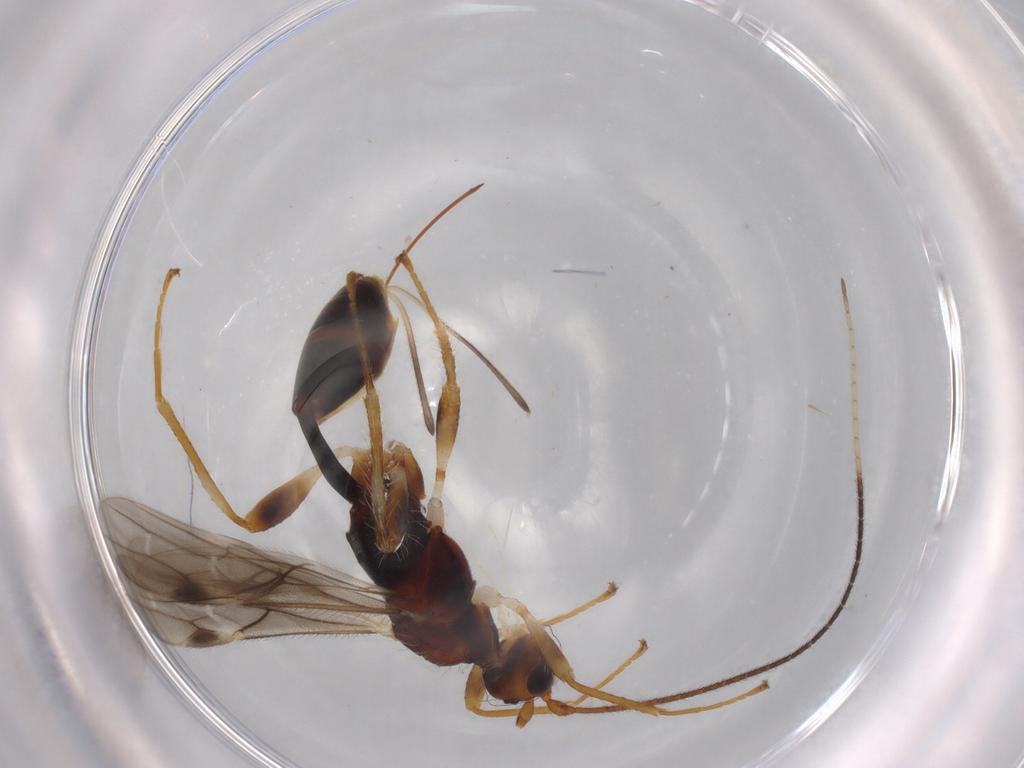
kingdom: Animalia
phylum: Arthropoda
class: Insecta
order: Hymenoptera
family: Braconidae
